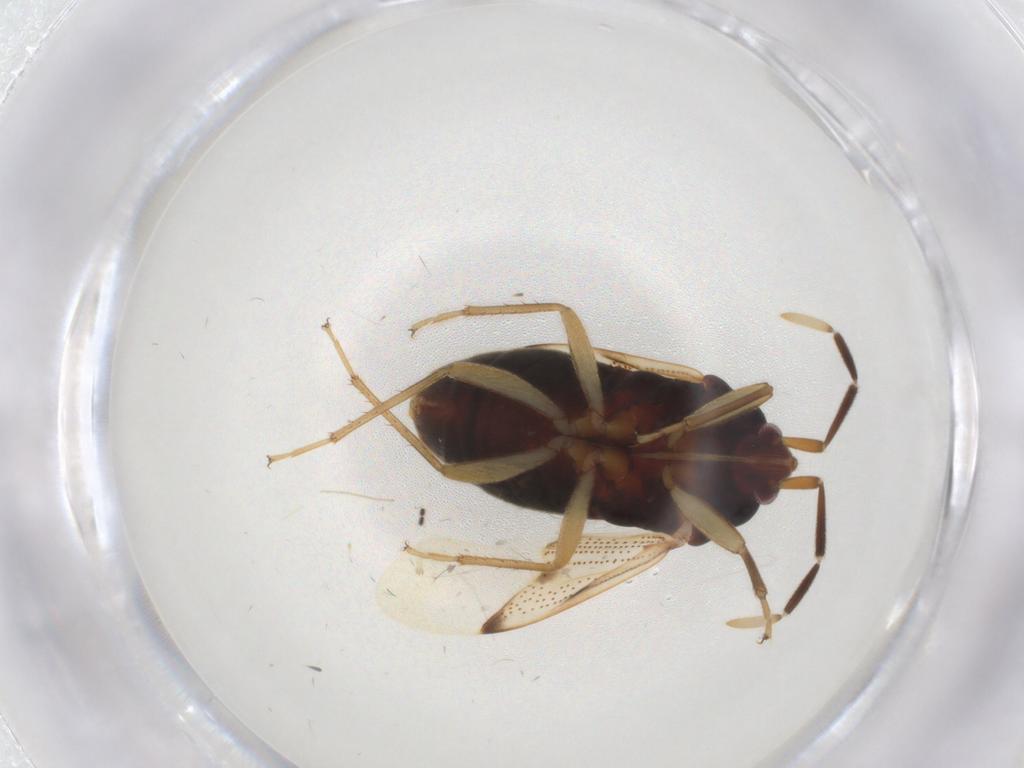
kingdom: Animalia
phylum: Arthropoda
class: Insecta
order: Hemiptera
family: Rhyparochromidae
